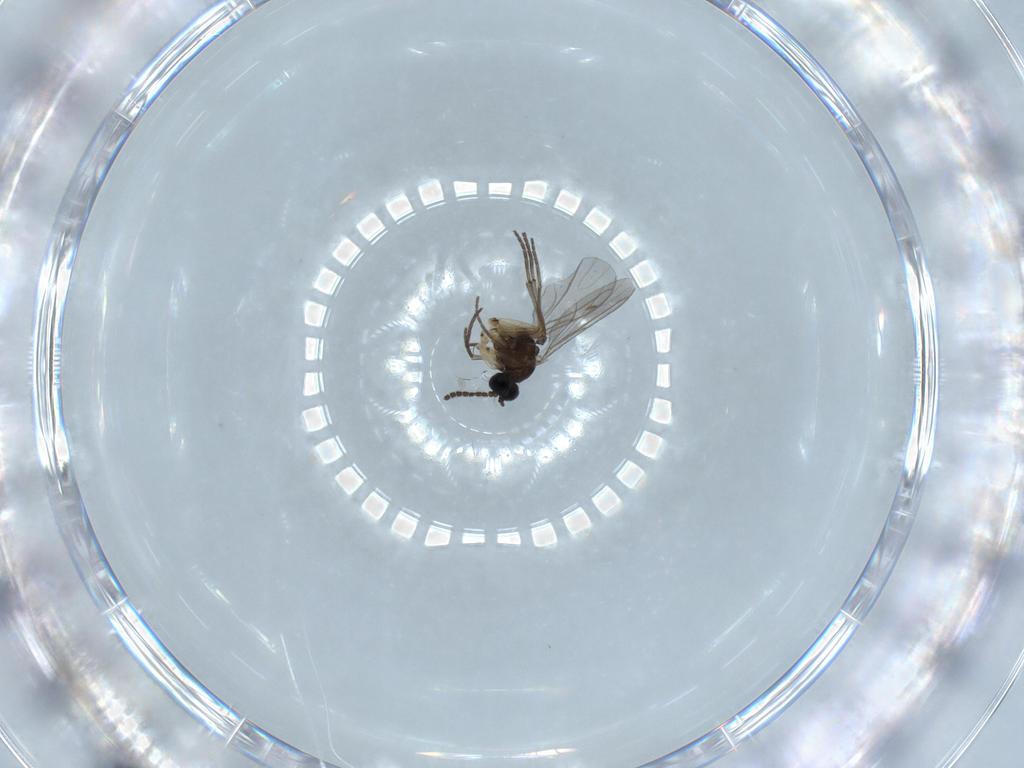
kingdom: Animalia
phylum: Arthropoda
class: Insecta
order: Diptera
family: Sciaridae
